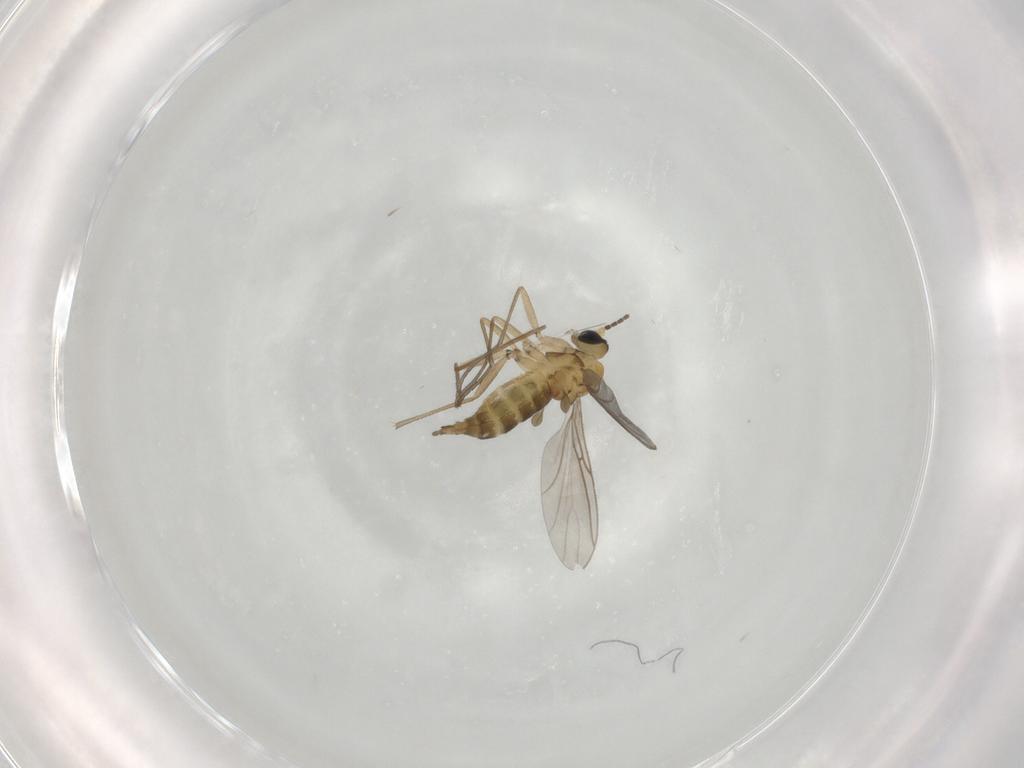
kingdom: Animalia
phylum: Arthropoda
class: Insecta
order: Diptera
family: Sciaridae
